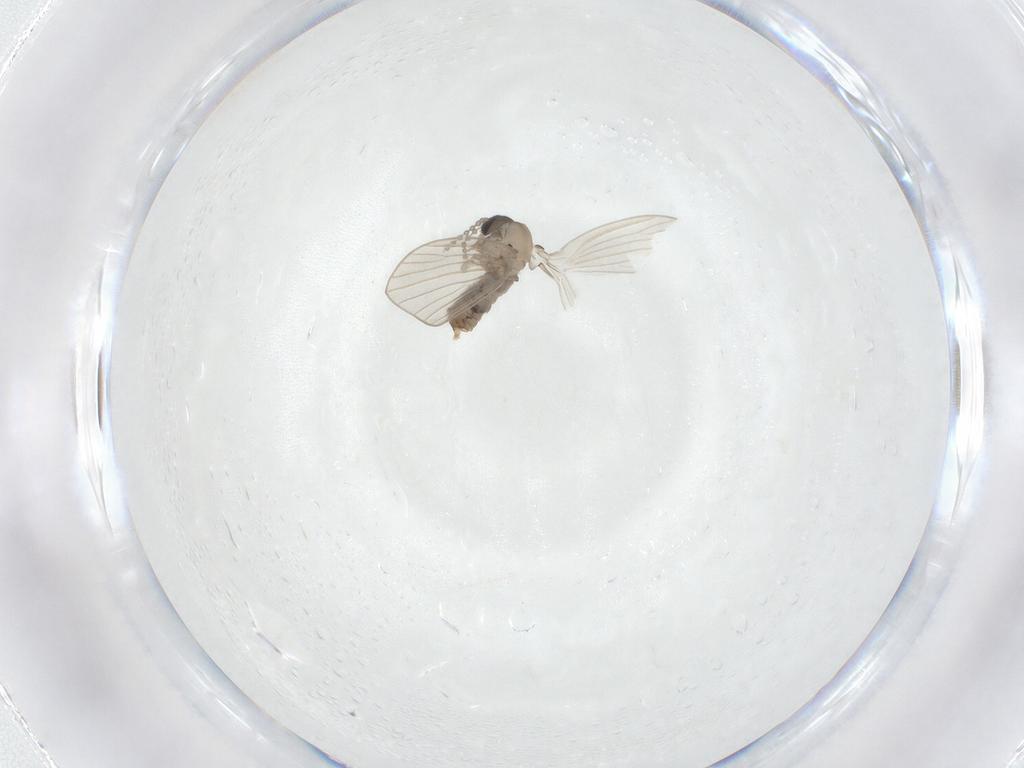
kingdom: Animalia
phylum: Arthropoda
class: Insecta
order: Diptera
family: Psychodidae
